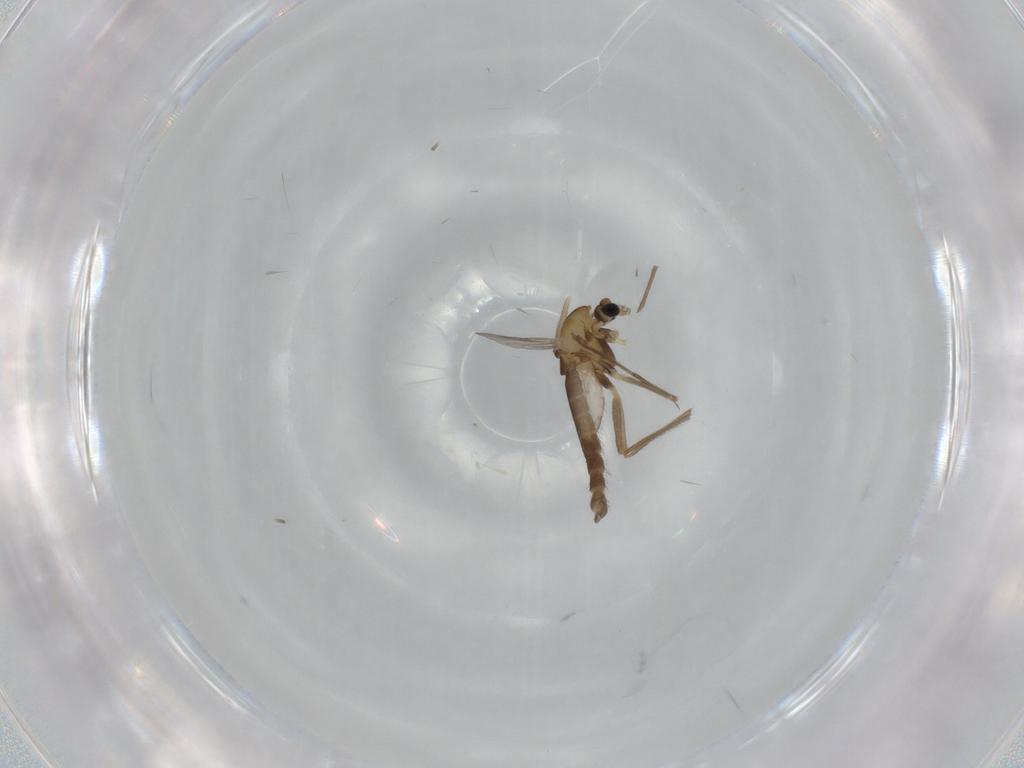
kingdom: Animalia
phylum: Arthropoda
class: Insecta
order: Diptera
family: Chironomidae
